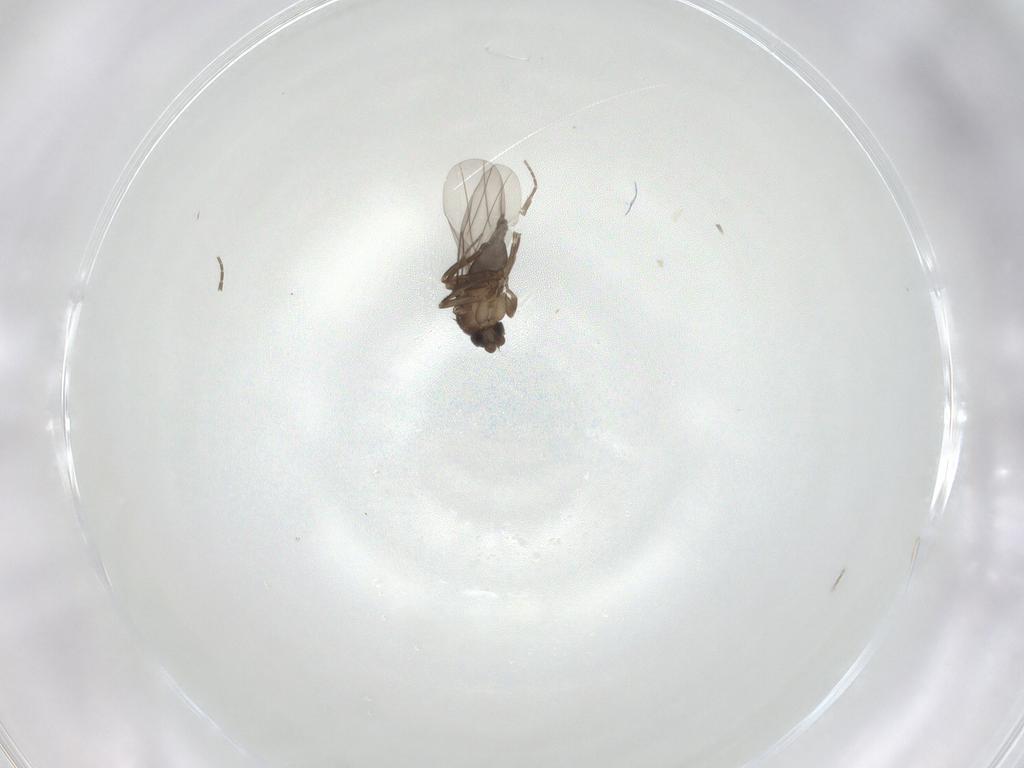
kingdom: Animalia
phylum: Arthropoda
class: Insecta
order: Diptera
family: Phoridae
